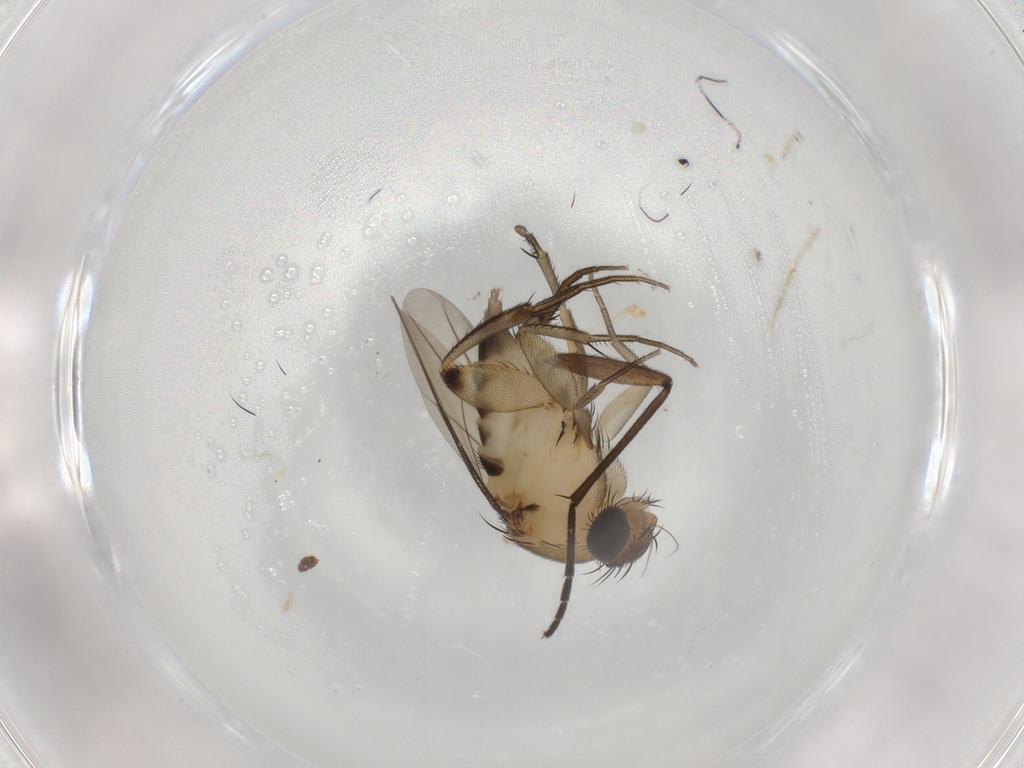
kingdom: Animalia
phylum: Arthropoda
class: Insecta
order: Diptera
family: Sciaridae
